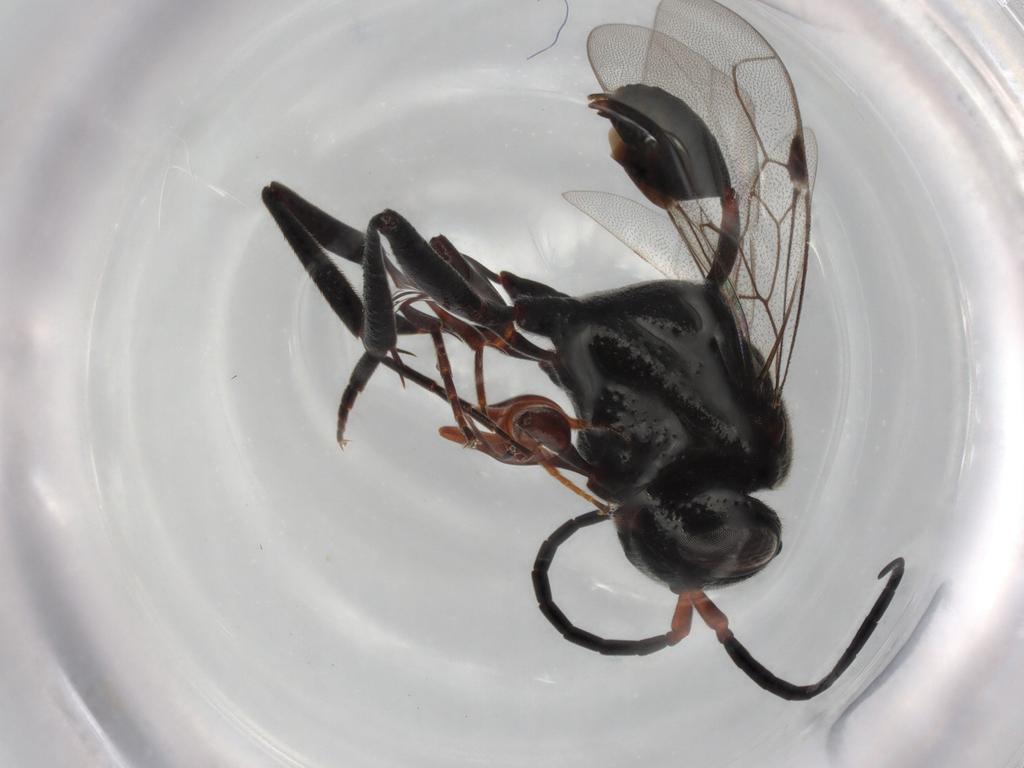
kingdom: Animalia
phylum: Arthropoda
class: Insecta
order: Hymenoptera
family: Evaniidae
